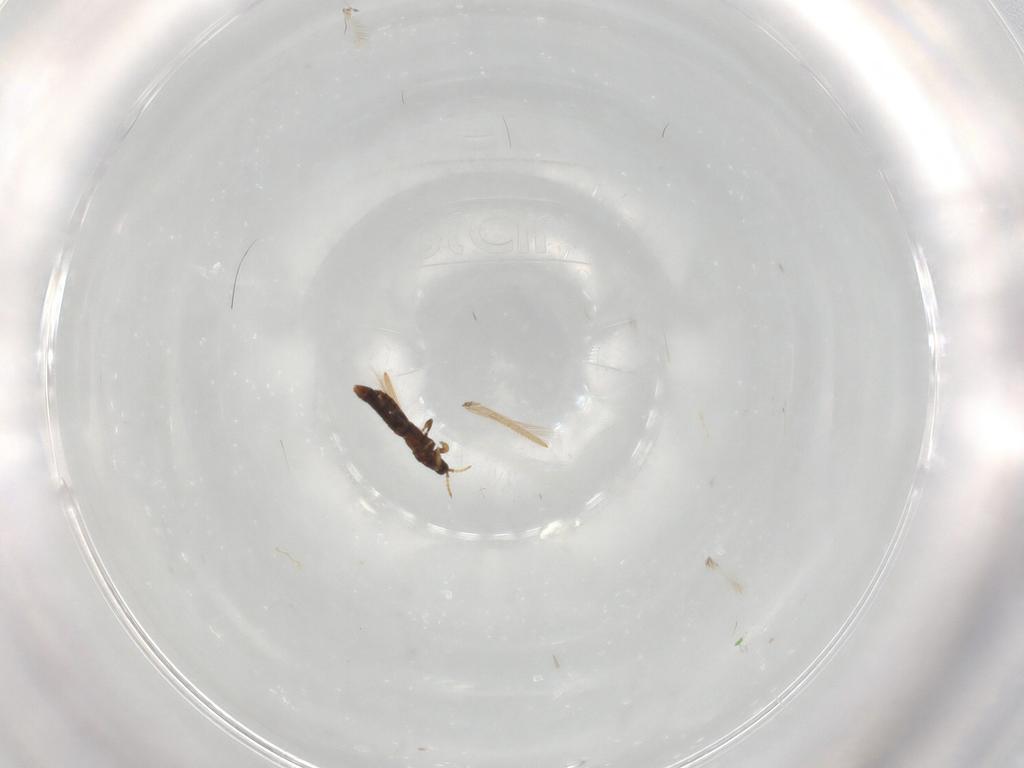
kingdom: Animalia
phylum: Arthropoda
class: Insecta
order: Thysanoptera
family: Thripidae
